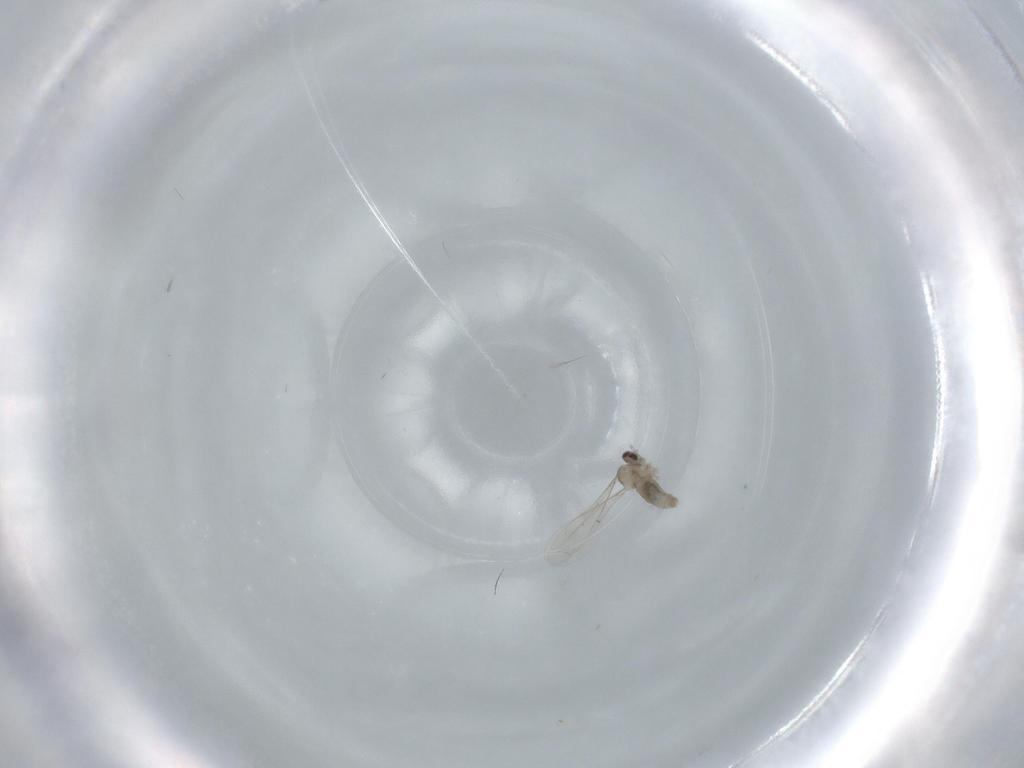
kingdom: Animalia
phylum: Arthropoda
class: Insecta
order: Diptera
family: Cecidomyiidae
